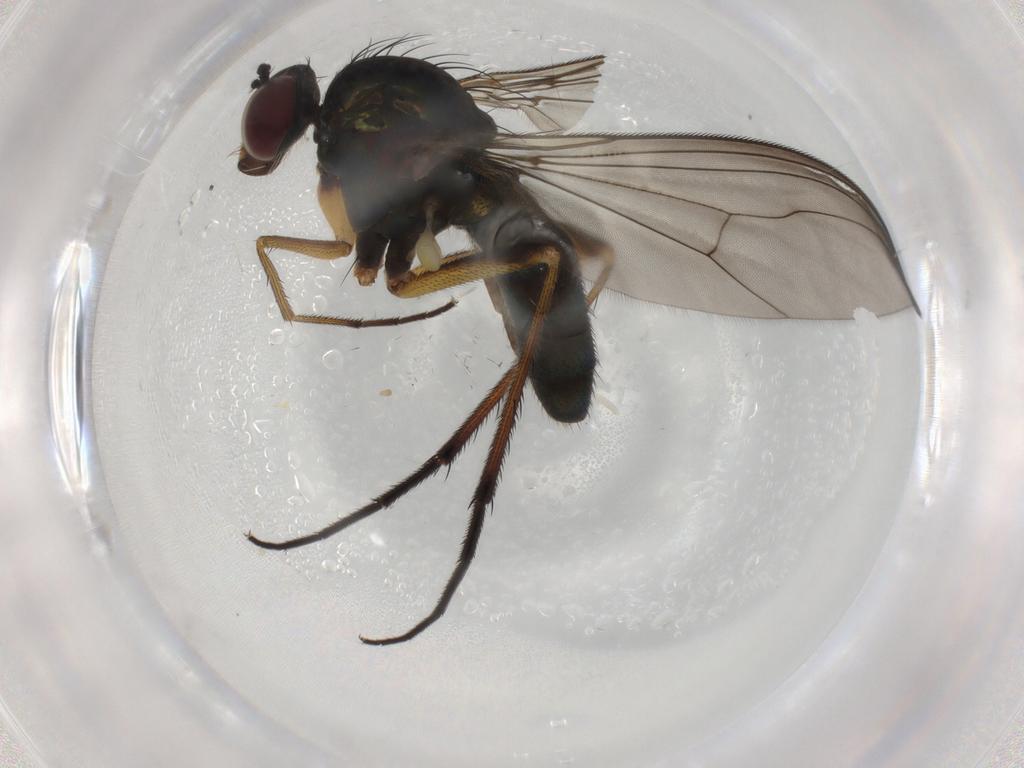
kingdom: Animalia
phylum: Arthropoda
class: Insecta
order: Diptera
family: Dolichopodidae
